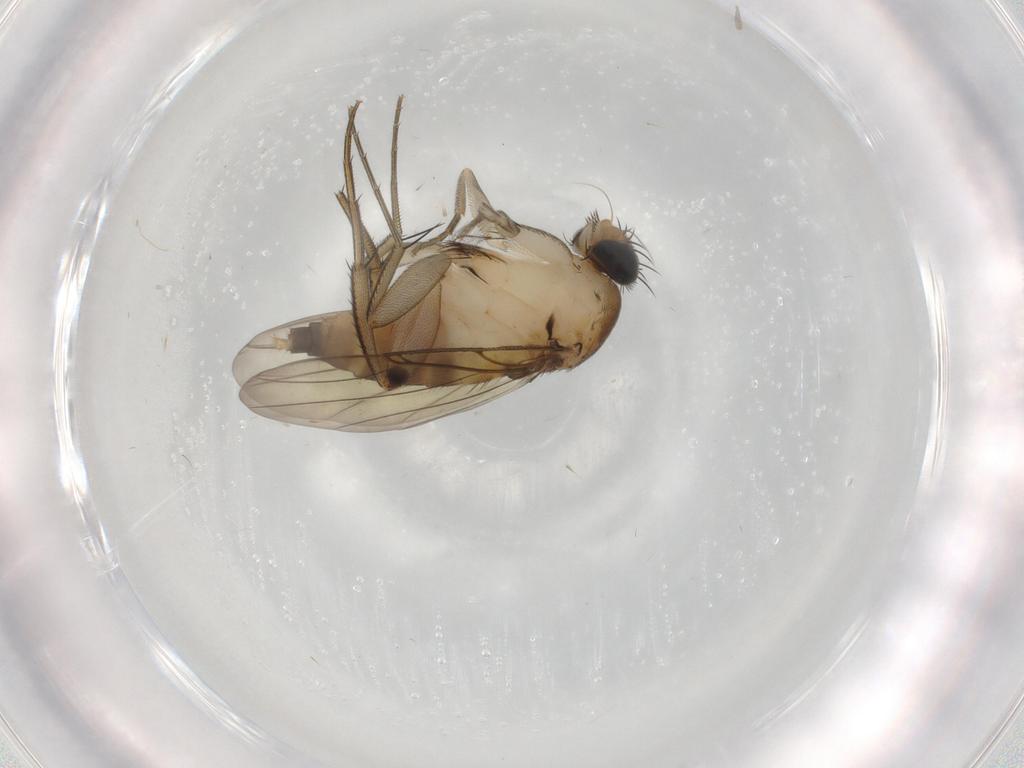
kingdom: Animalia
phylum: Arthropoda
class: Insecta
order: Diptera
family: Phoridae
